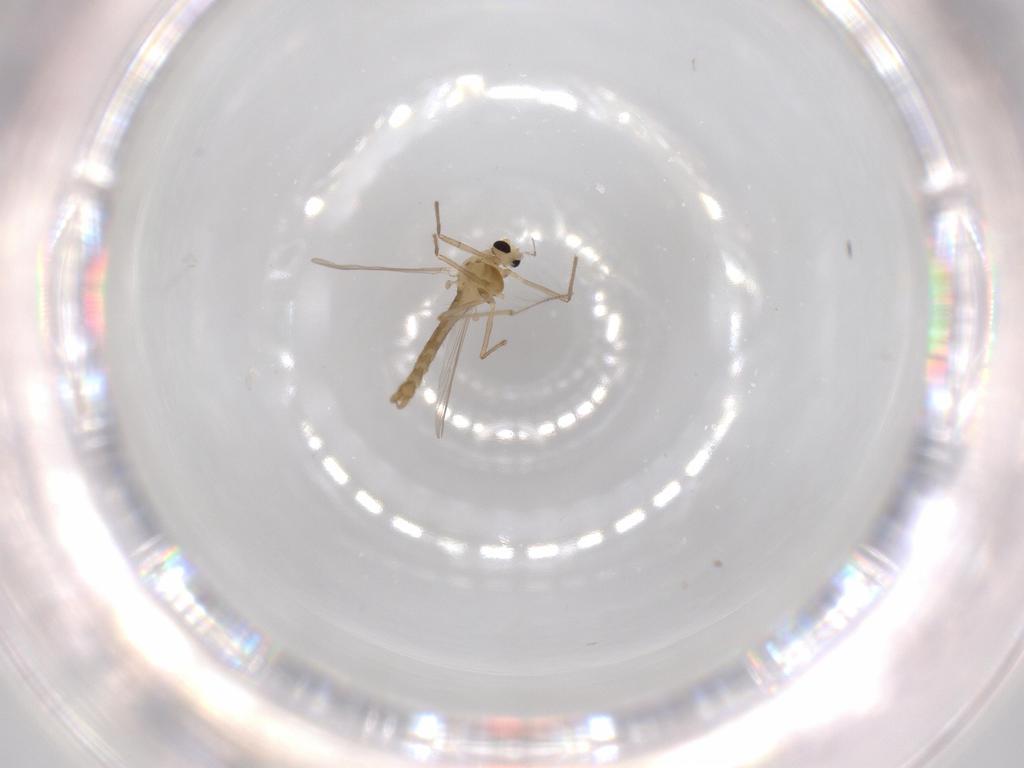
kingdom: Animalia
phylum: Arthropoda
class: Insecta
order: Diptera
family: Chironomidae
